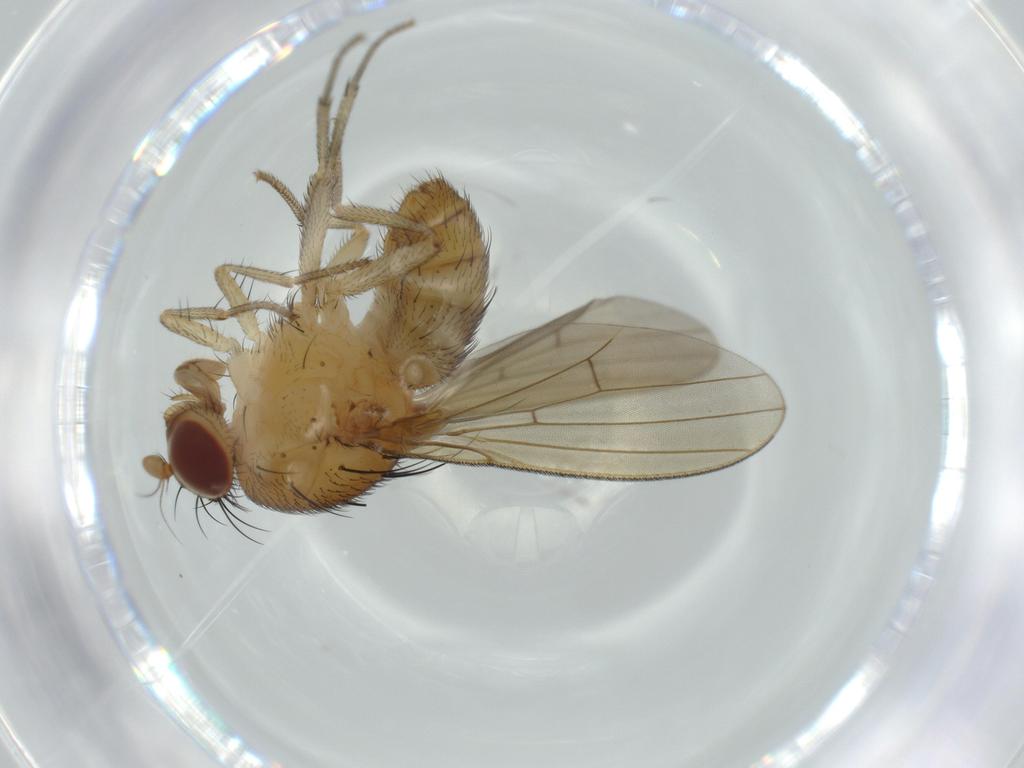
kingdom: Animalia
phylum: Arthropoda
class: Insecta
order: Diptera
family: Lauxaniidae
